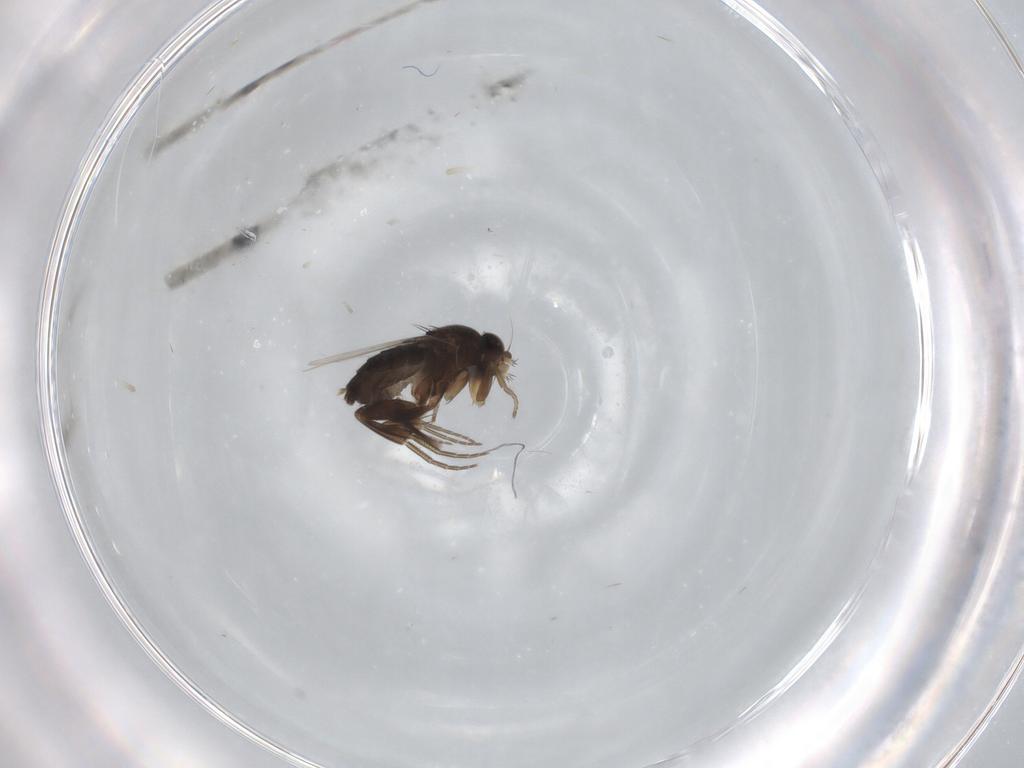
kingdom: Animalia
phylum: Arthropoda
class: Insecta
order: Diptera
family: Phoridae
